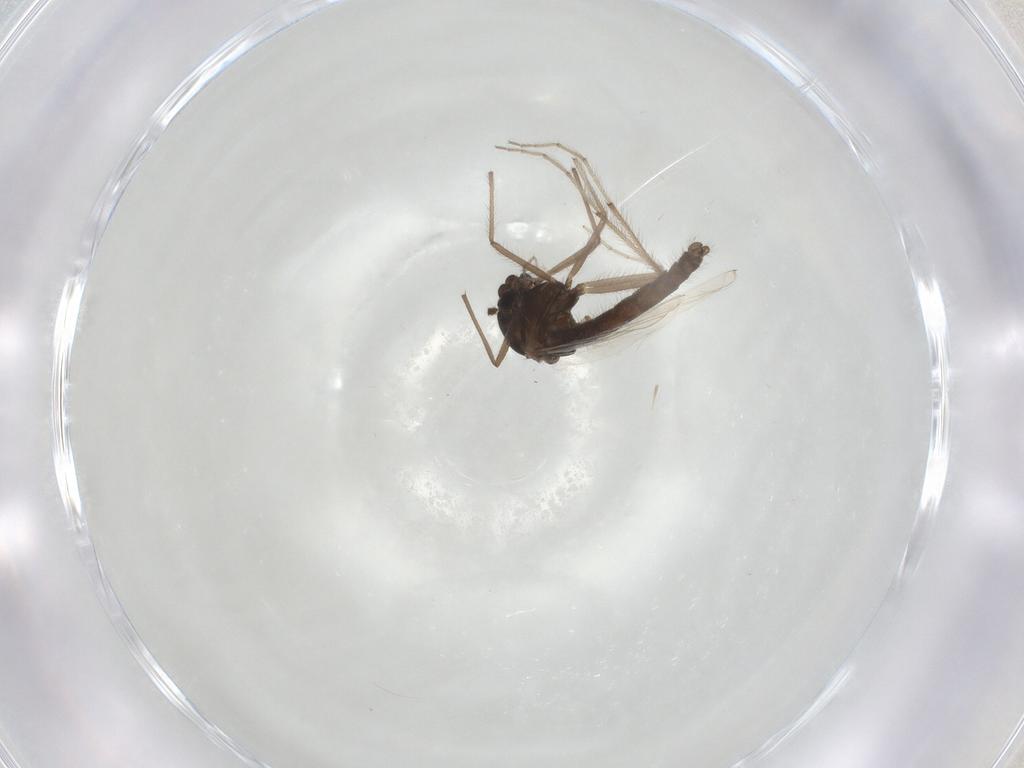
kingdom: Animalia
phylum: Arthropoda
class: Insecta
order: Diptera
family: Chironomidae
